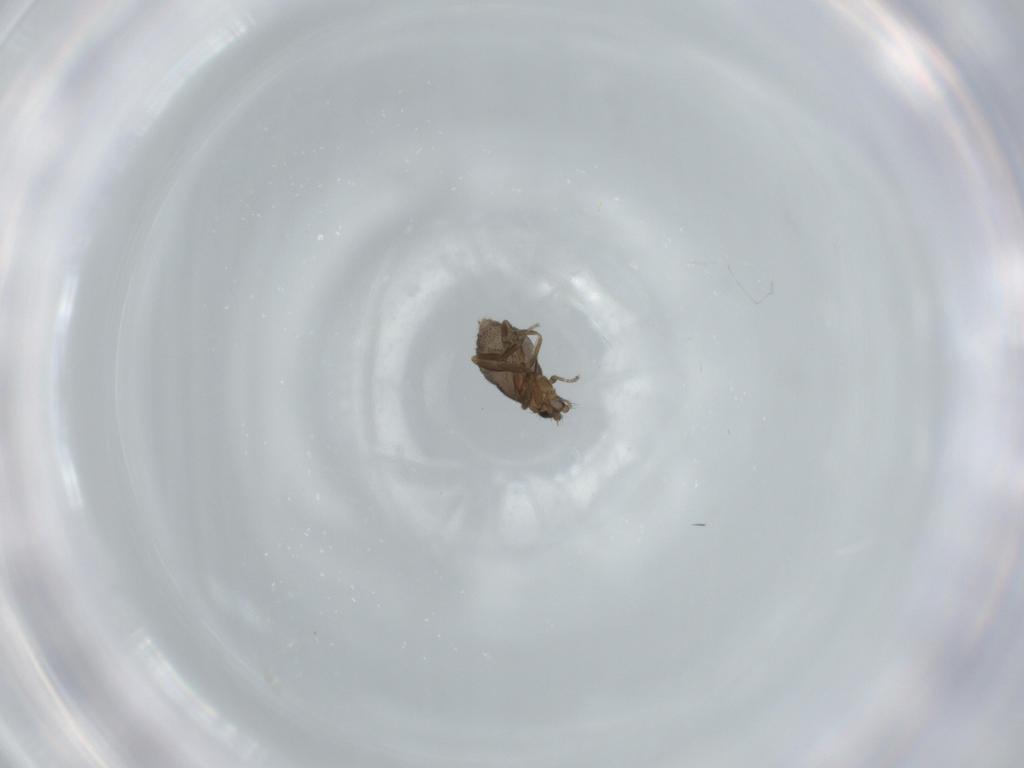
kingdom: Animalia
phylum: Arthropoda
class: Insecta
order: Diptera
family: Phoridae
